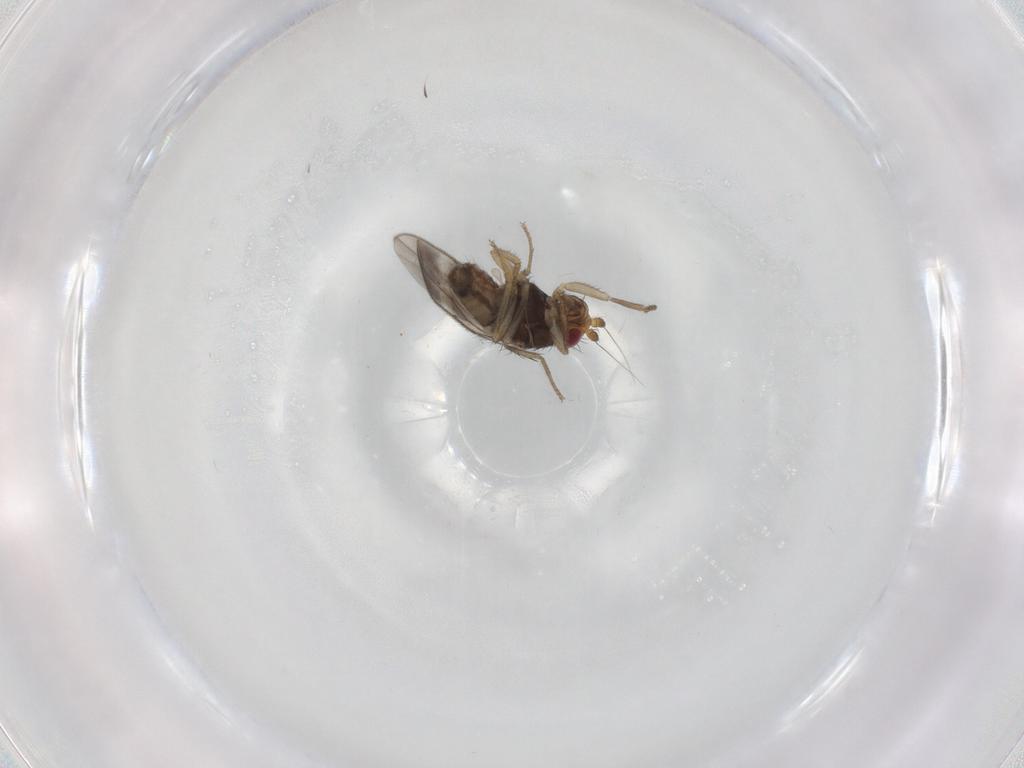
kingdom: Animalia
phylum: Arthropoda
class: Insecta
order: Diptera
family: Sphaeroceridae
